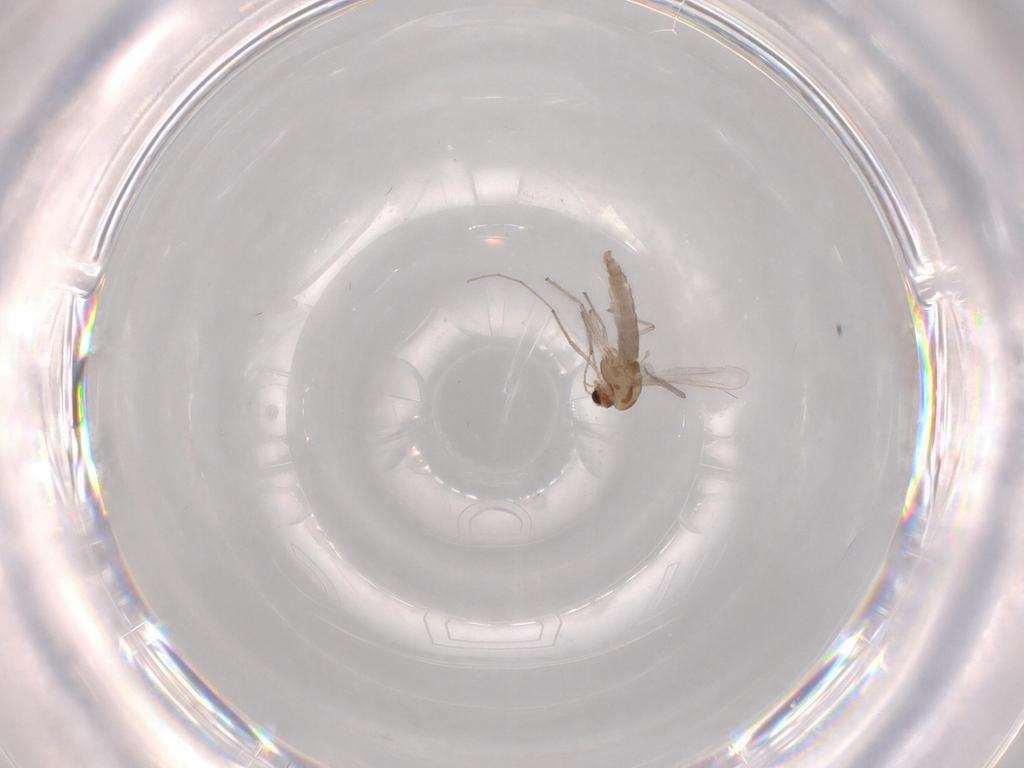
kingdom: Animalia
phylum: Arthropoda
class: Insecta
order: Diptera
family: Chironomidae
